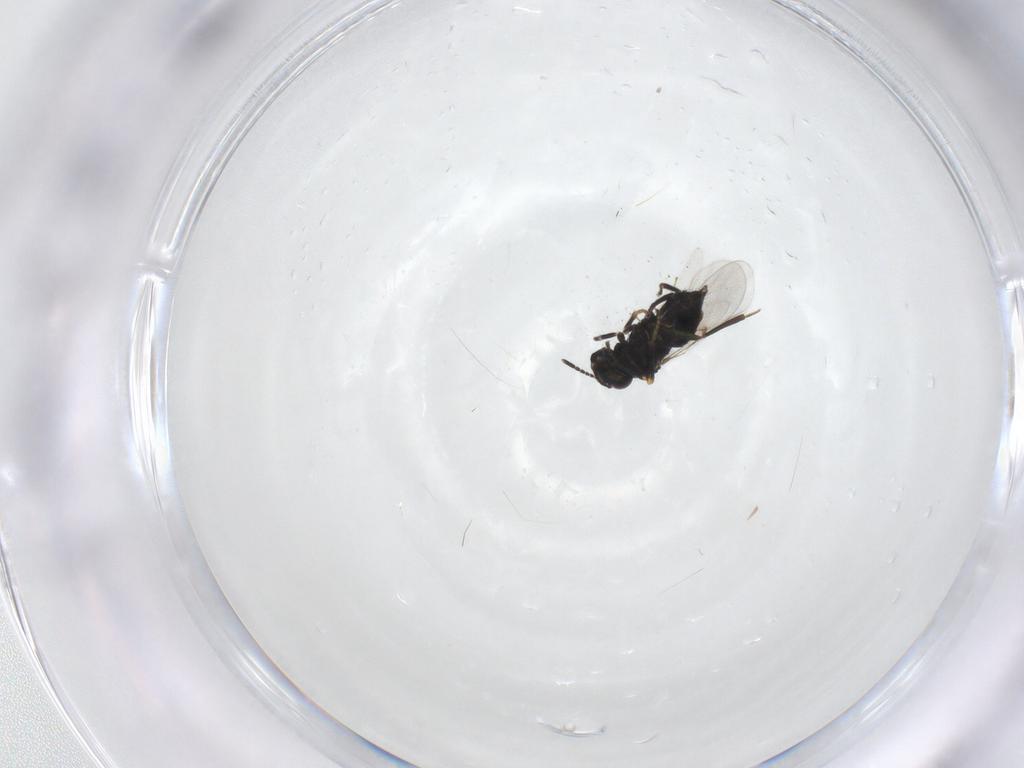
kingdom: Animalia
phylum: Arthropoda
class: Insecta
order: Hymenoptera
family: Encyrtidae
